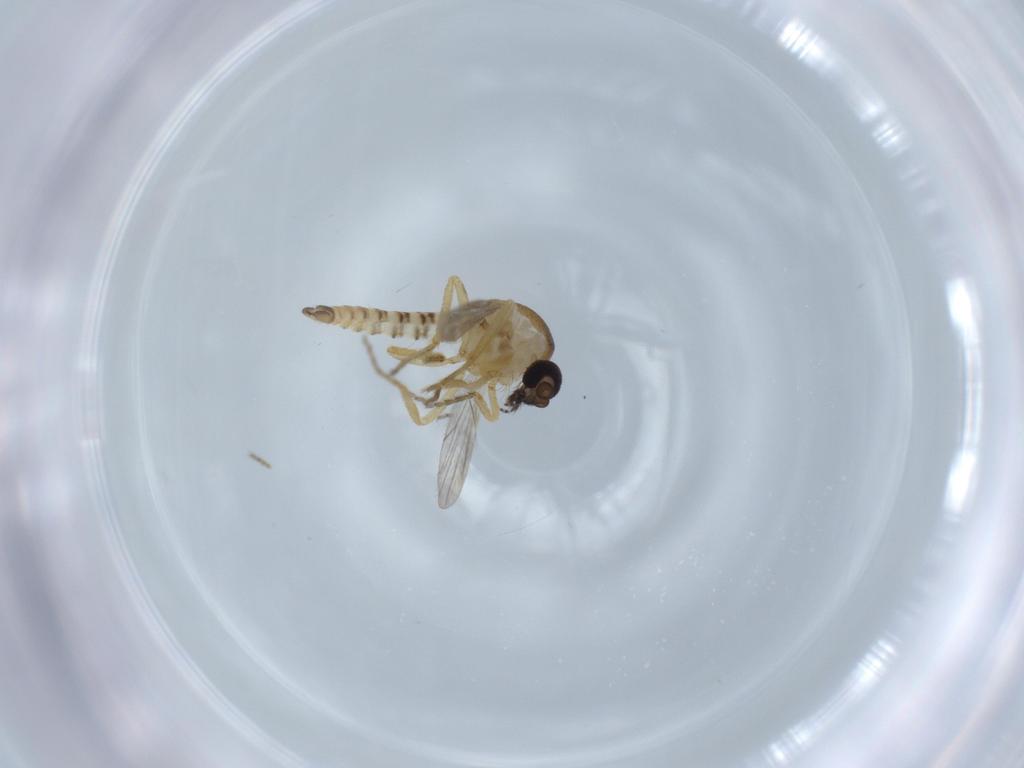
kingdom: Animalia
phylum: Arthropoda
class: Insecta
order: Diptera
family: Ceratopogonidae
